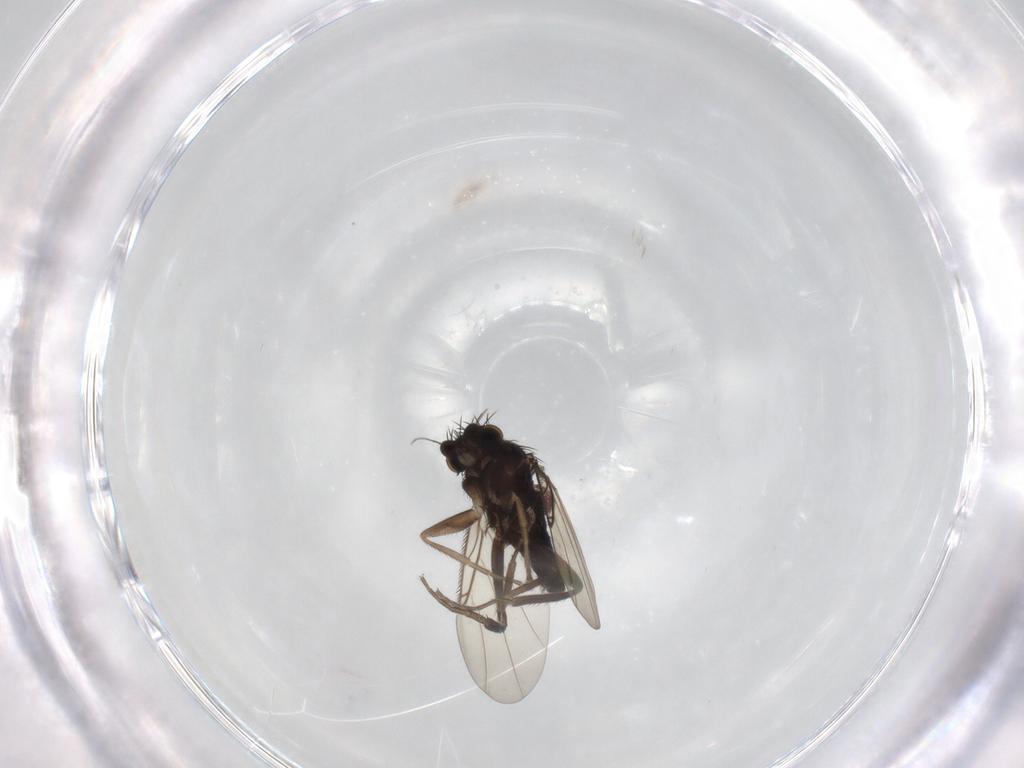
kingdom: Animalia
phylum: Arthropoda
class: Insecta
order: Diptera
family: Phoridae
